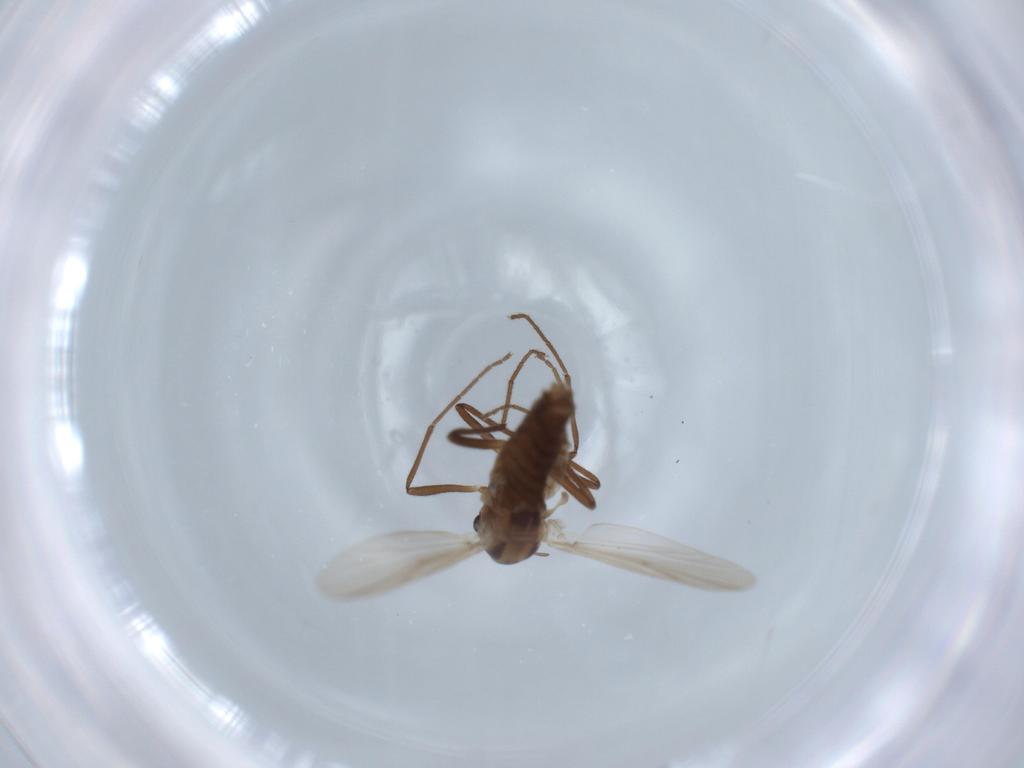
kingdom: Animalia
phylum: Arthropoda
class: Insecta
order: Diptera
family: Chironomidae
